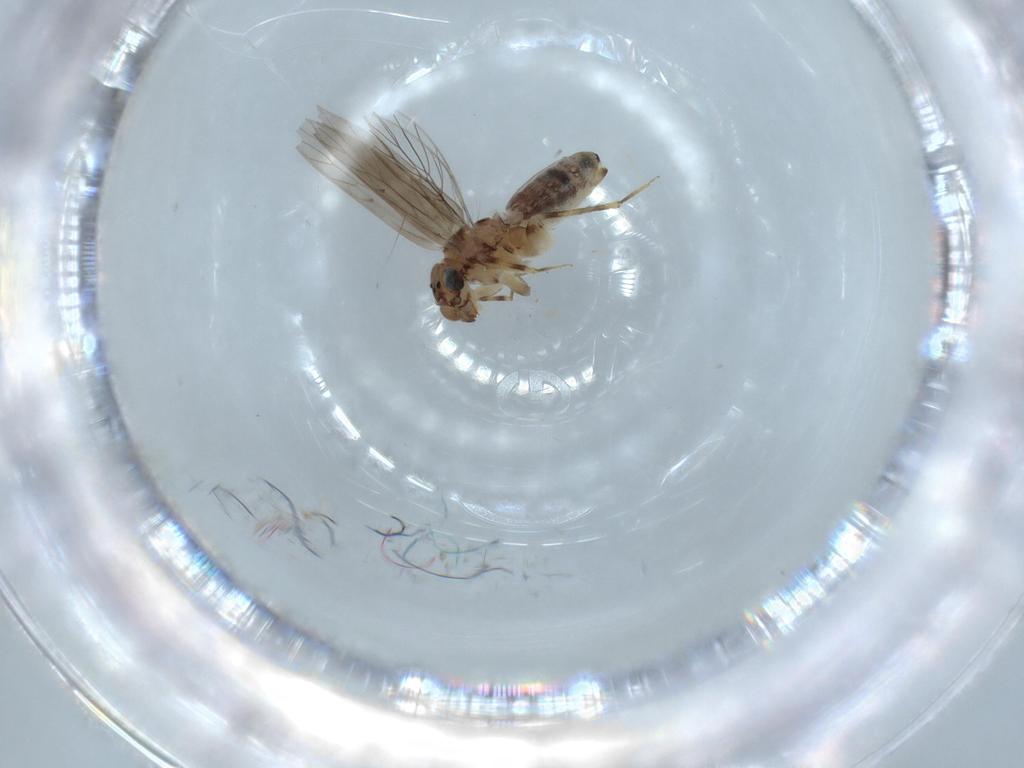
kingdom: Animalia
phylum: Arthropoda
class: Insecta
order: Psocodea
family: Lepidopsocidae
